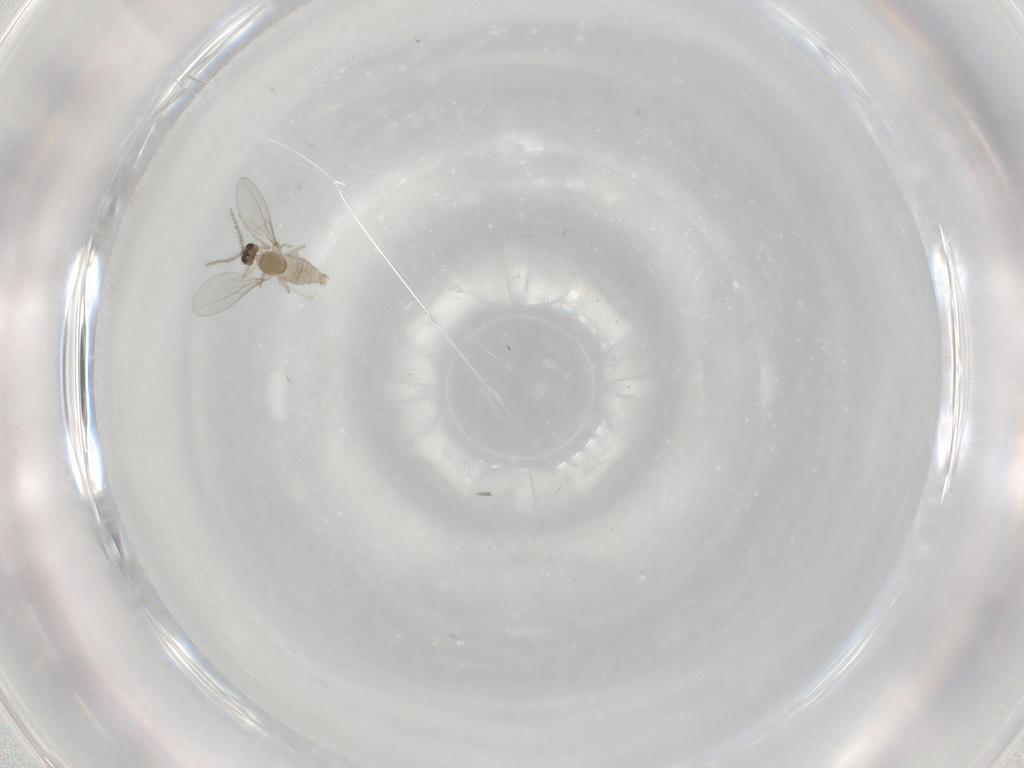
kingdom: Animalia
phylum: Arthropoda
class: Insecta
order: Diptera
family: Cecidomyiidae
